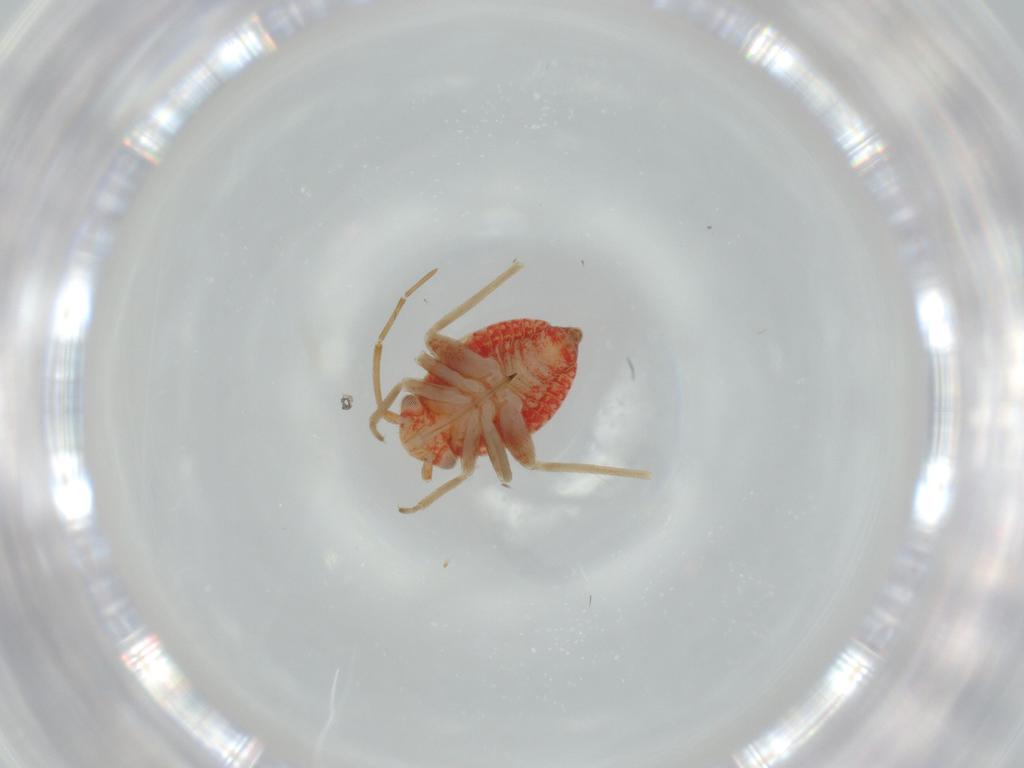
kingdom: Animalia
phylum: Arthropoda
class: Insecta
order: Hemiptera
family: Miridae
